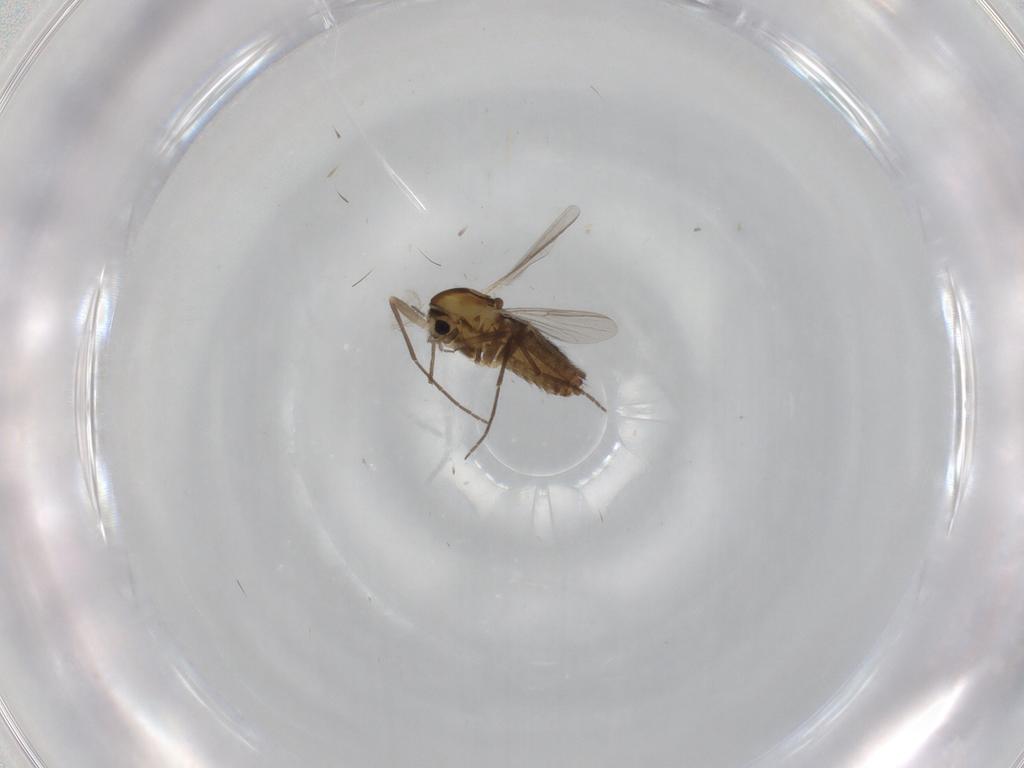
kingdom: Animalia
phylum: Arthropoda
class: Insecta
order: Diptera
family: Chironomidae
